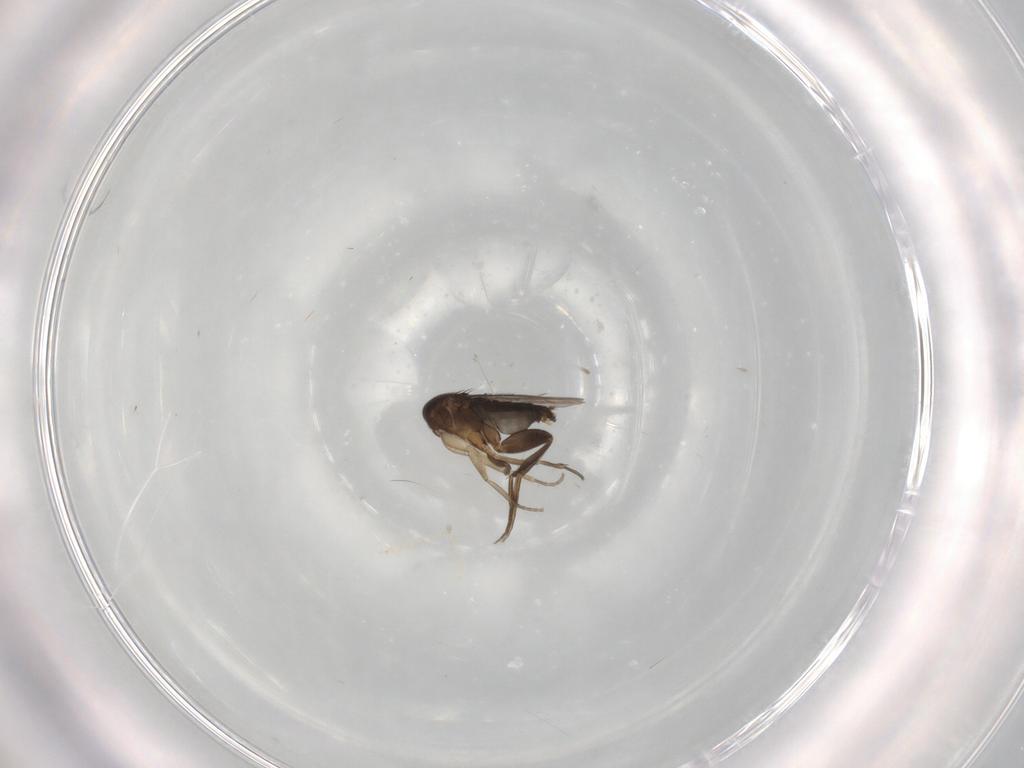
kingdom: Animalia
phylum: Arthropoda
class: Insecta
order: Diptera
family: Phoridae
